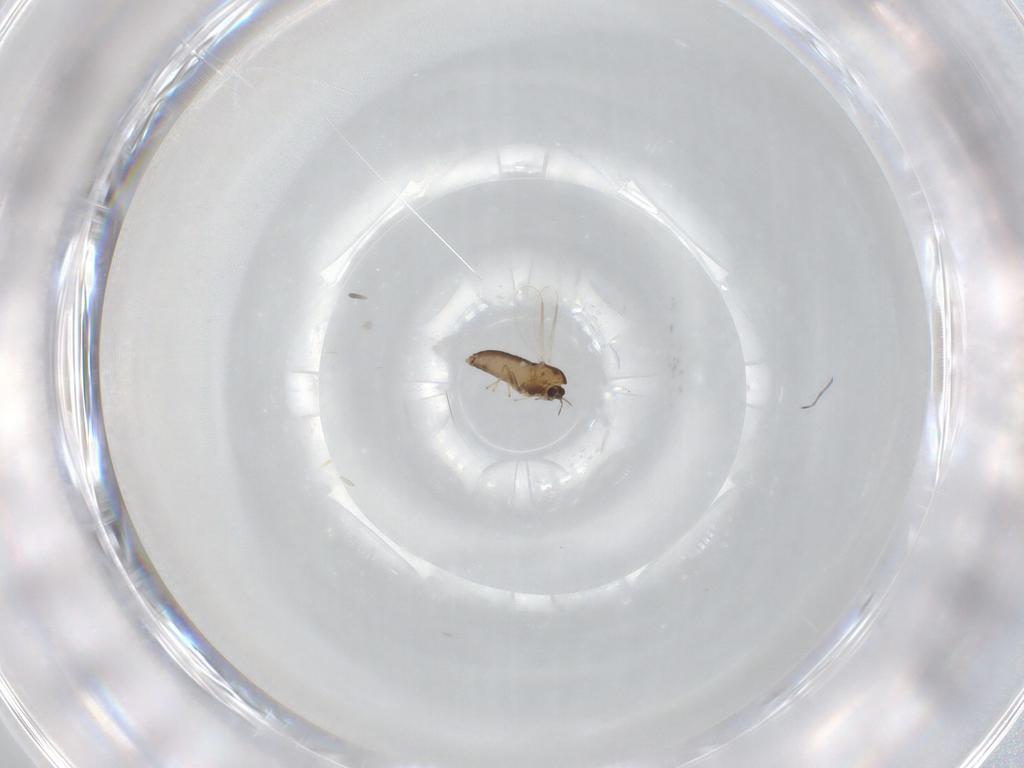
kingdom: Animalia
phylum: Arthropoda
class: Insecta
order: Diptera
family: Chironomidae
